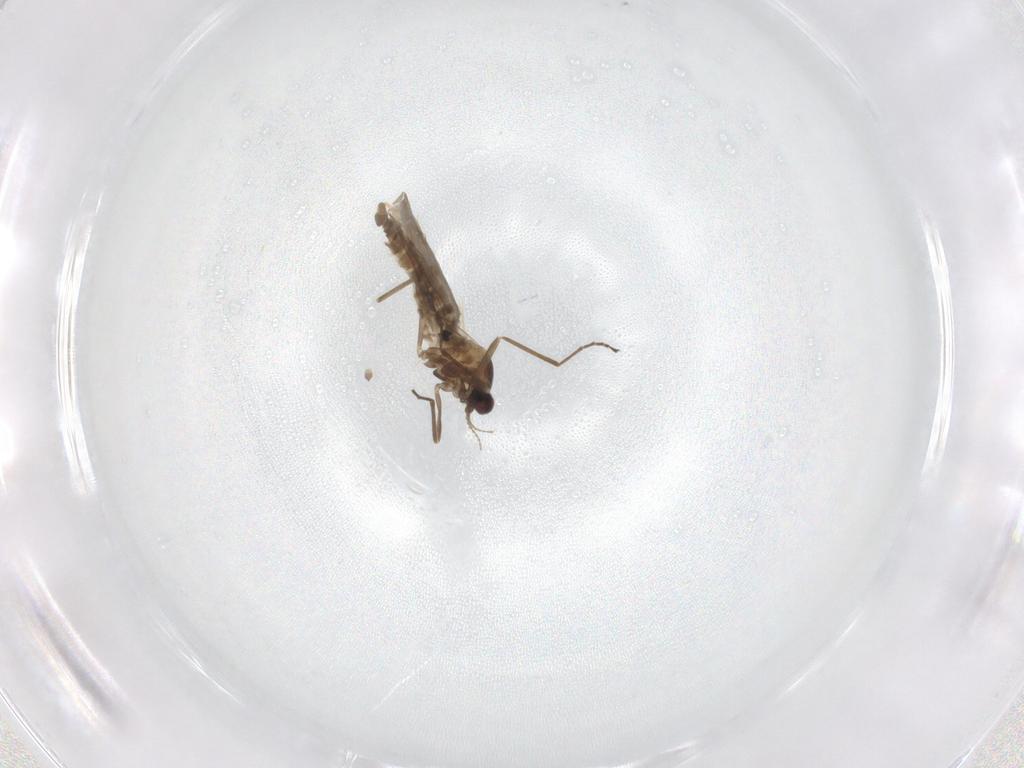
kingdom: Animalia
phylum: Arthropoda
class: Insecta
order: Diptera
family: Cecidomyiidae
